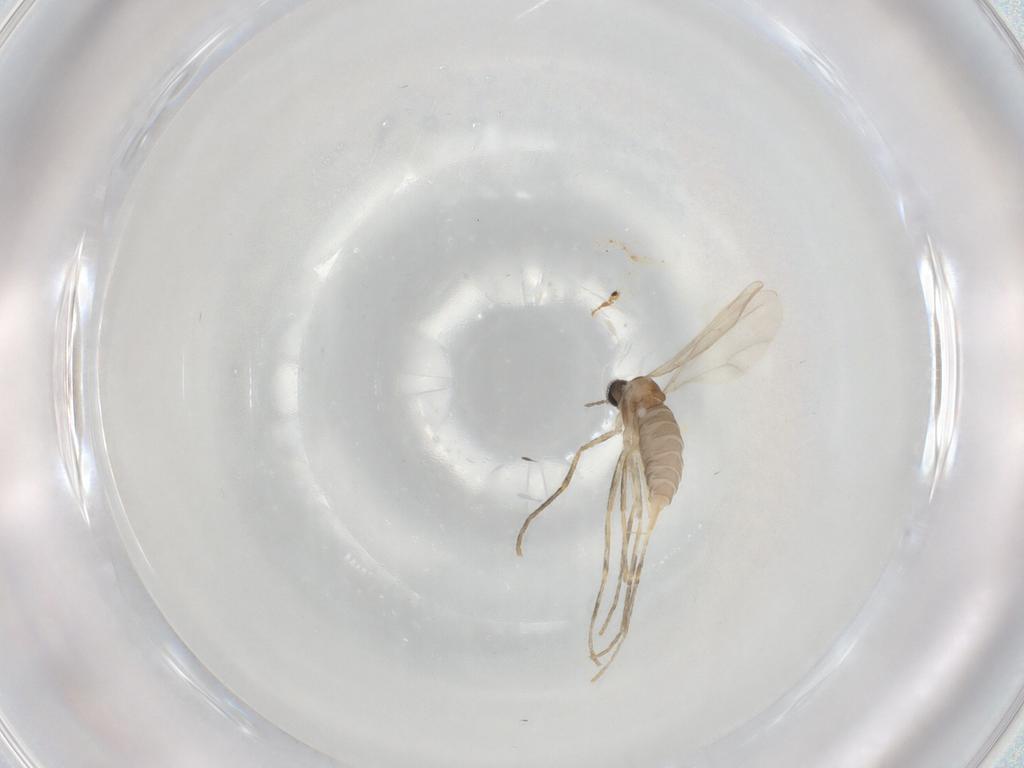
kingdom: Animalia
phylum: Arthropoda
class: Insecta
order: Diptera
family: Cecidomyiidae
